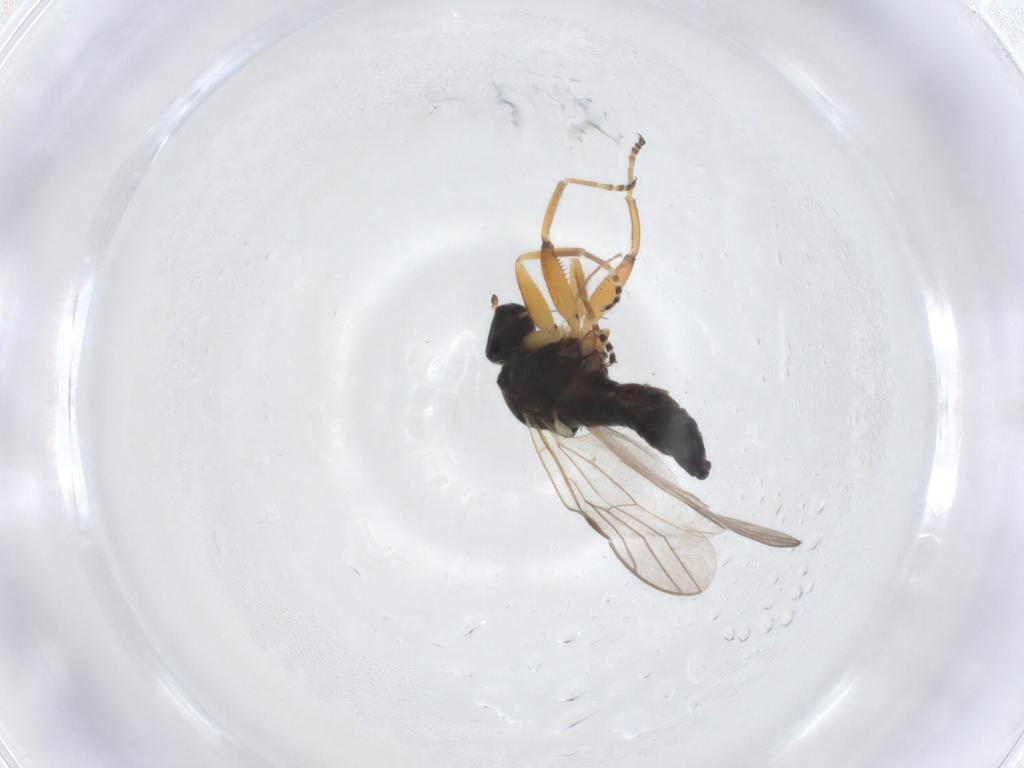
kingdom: Animalia
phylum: Arthropoda
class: Insecta
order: Diptera
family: Hybotidae
